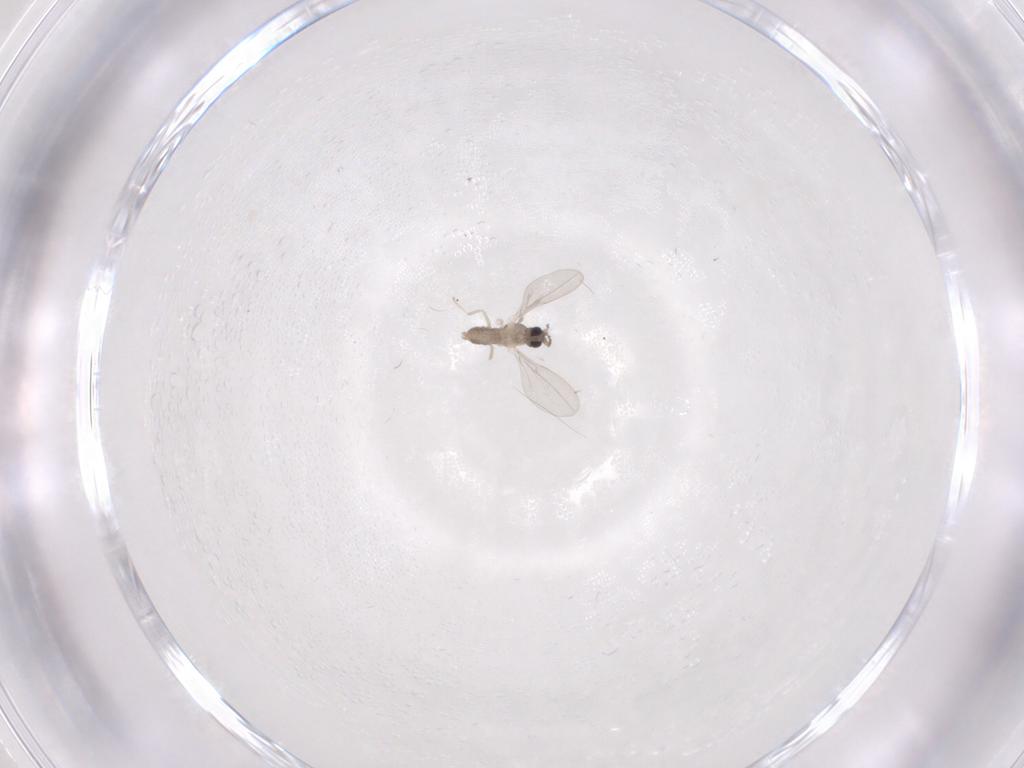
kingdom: Animalia
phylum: Arthropoda
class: Insecta
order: Diptera
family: Cecidomyiidae
